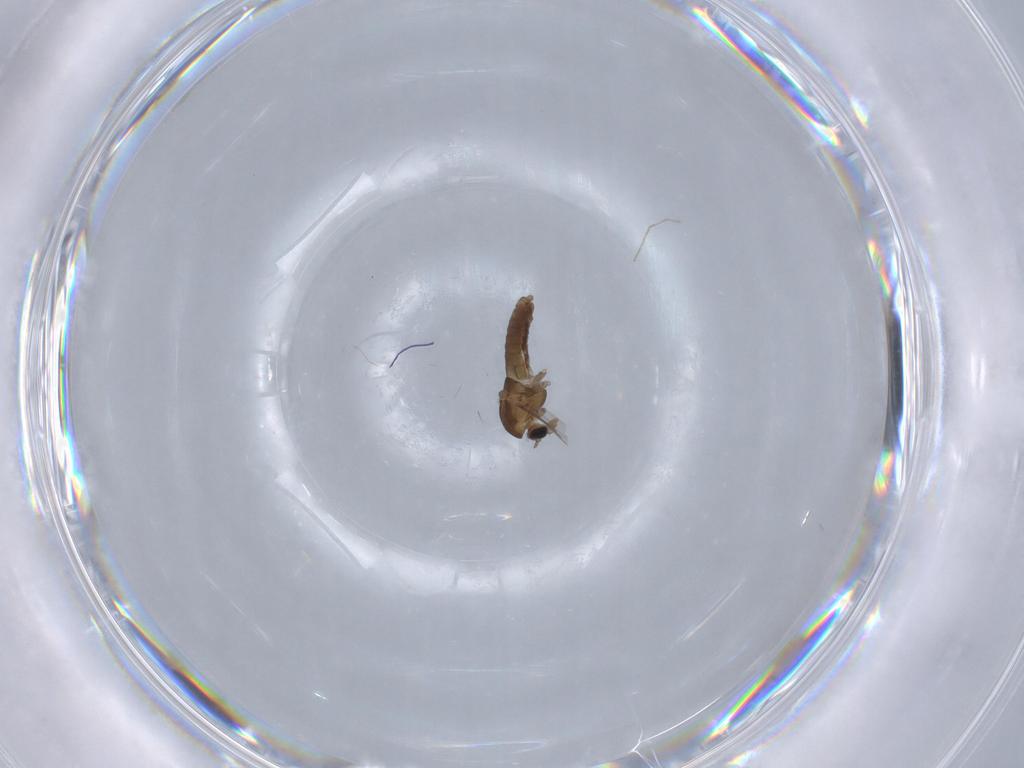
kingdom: Animalia
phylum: Arthropoda
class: Insecta
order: Diptera
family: Chironomidae
